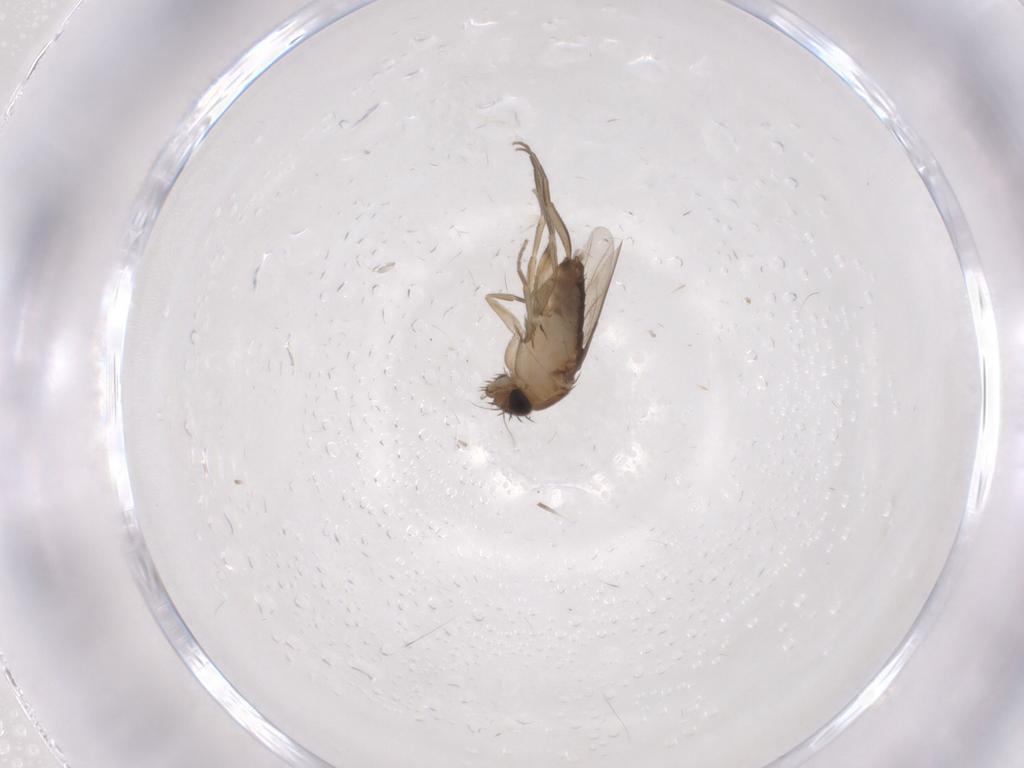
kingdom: Animalia
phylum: Arthropoda
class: Insecta
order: Diptera
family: Phoridae
